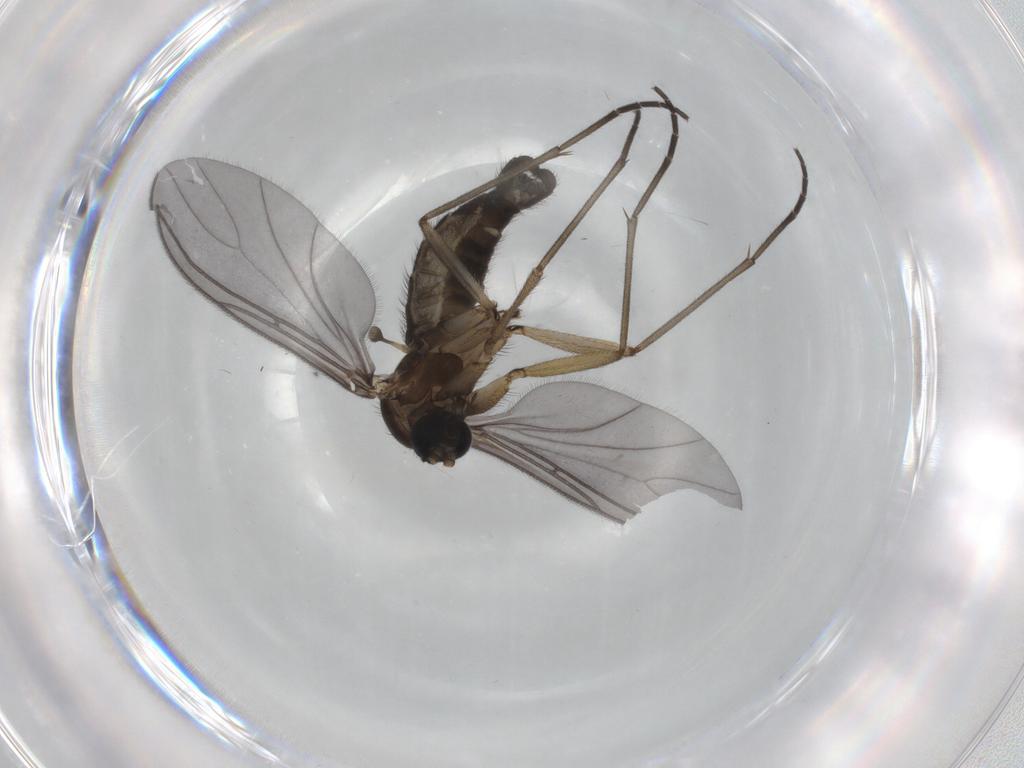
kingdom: Animalia
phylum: Arthropoda
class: Insecta
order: Diptera
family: Sciaridae
